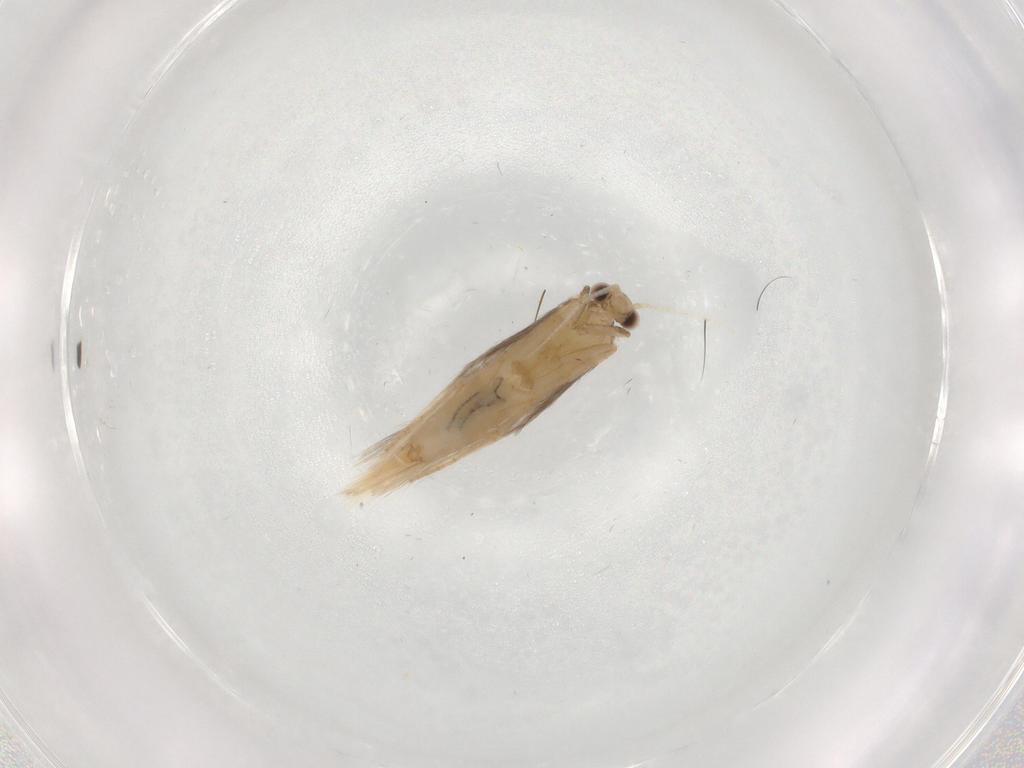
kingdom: Animalia
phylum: Arthropoda
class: Insecta
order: Trichoptera
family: Hydroptilidae
